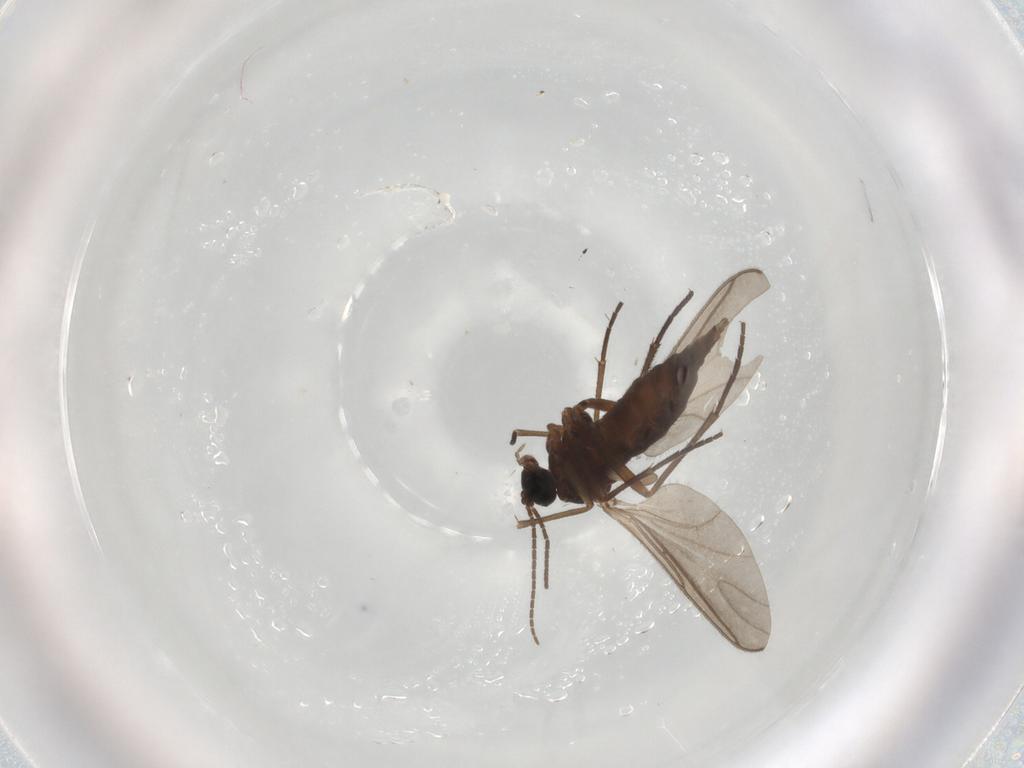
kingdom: Animalia
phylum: Arthropoda
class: Insecta
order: Diptera
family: Sciaridae
